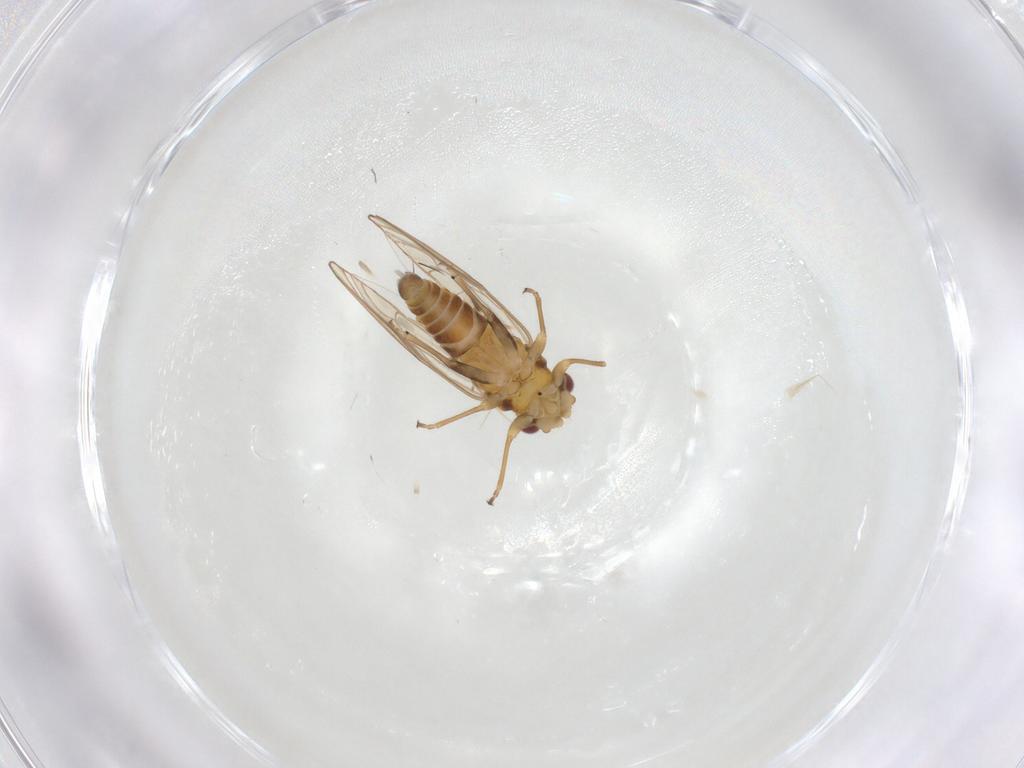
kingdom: Animalia
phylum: Arthropoda
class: Insecta
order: Hemiptera
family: Psyllidae
